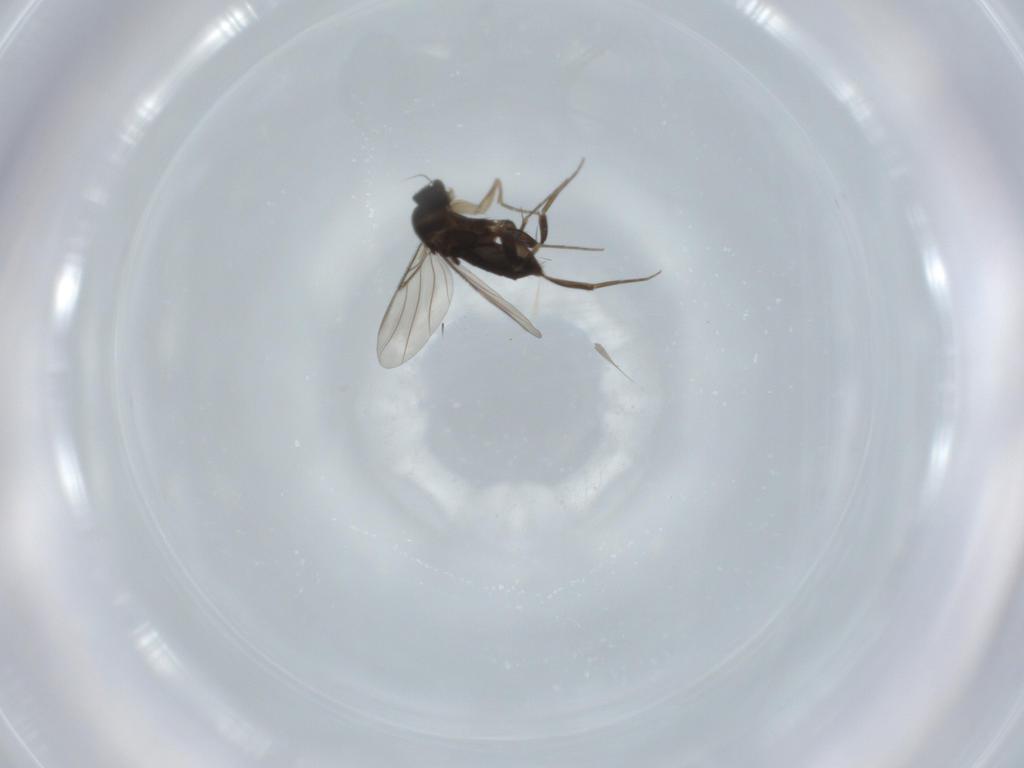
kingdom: Animalia
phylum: Arthropoda
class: Insecta
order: Diptera
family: Phoridae
